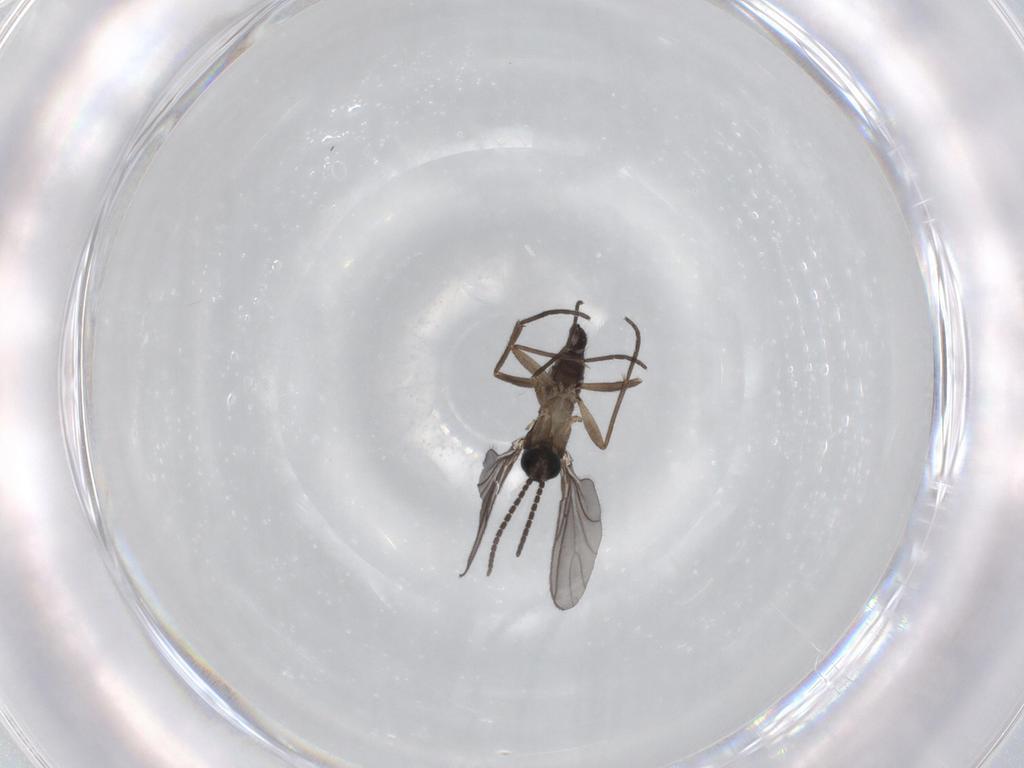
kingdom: Animalia
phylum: Arthropoda
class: Insecta
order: Diptera
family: Sciaridae
